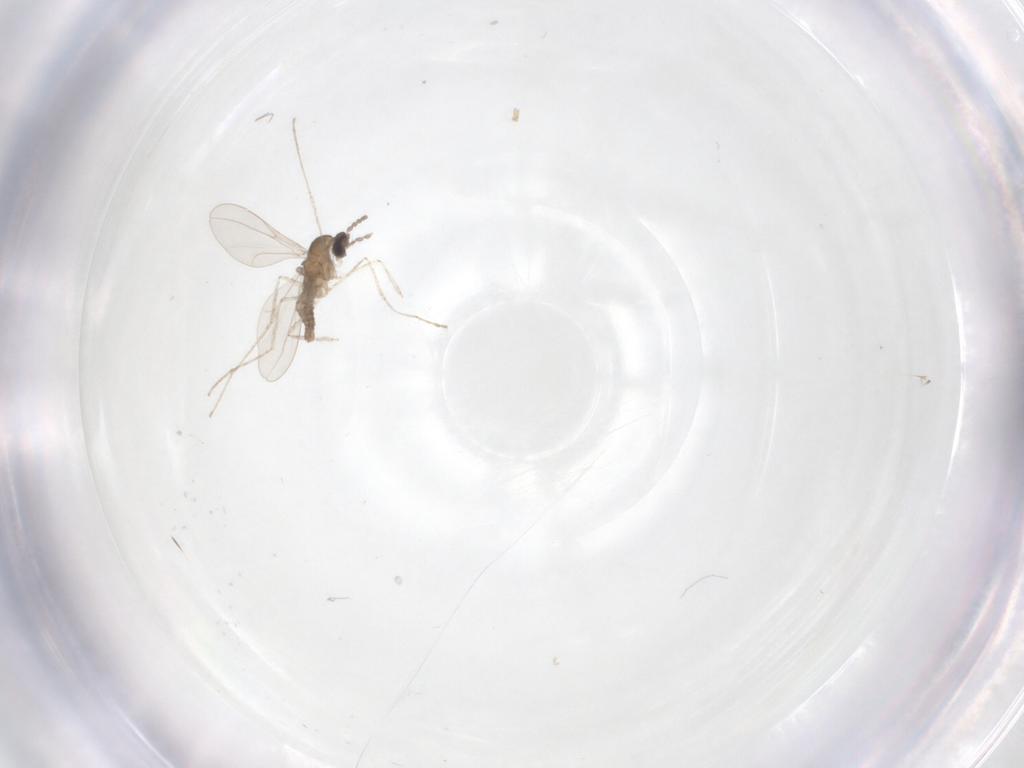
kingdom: Animalia
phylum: Arthropoda
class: Insecta
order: Diptera
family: Cecidomyiidae
